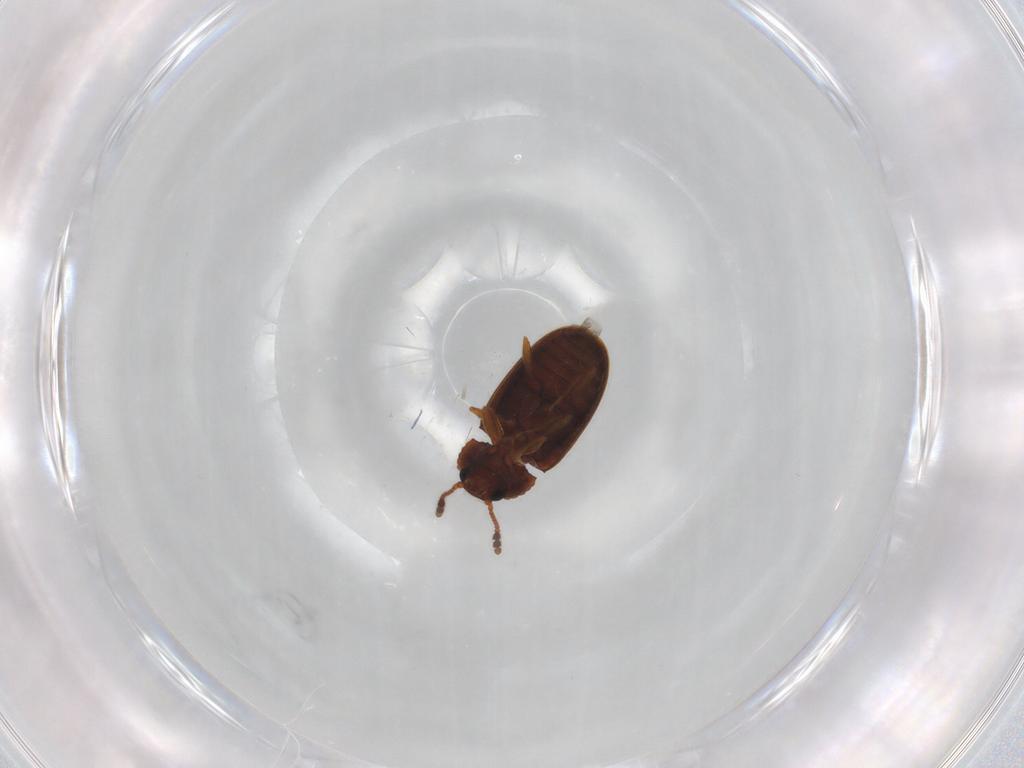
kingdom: Animalia
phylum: Arthropoda
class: Insecta
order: Coleoptera
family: Erotylidae
